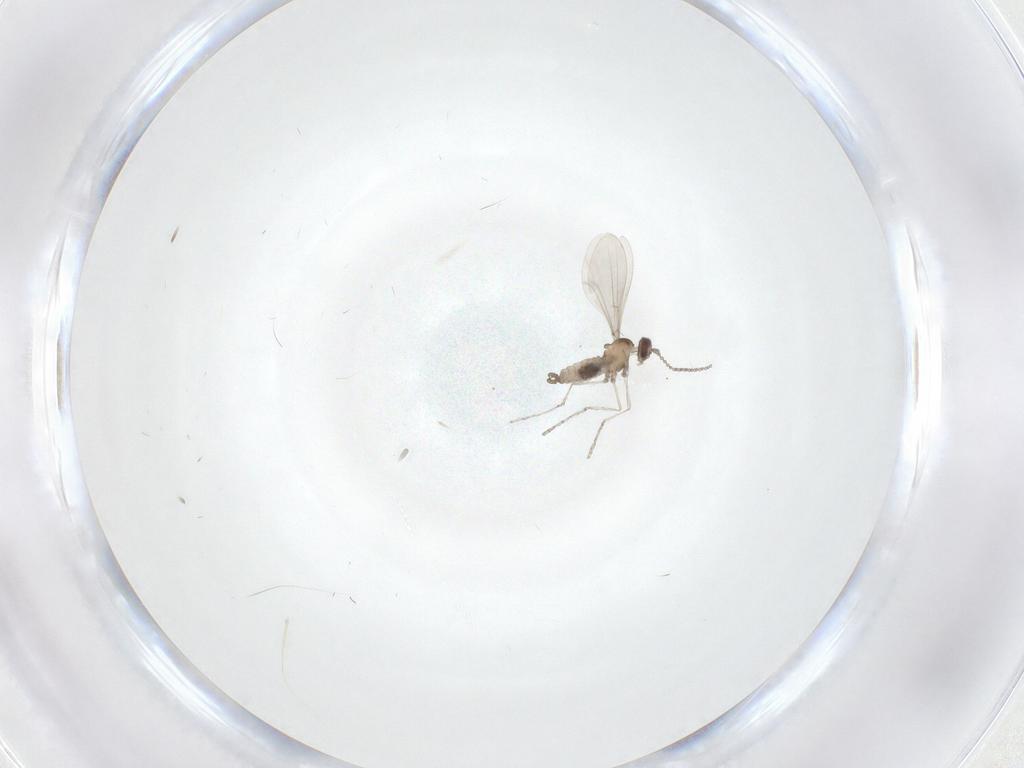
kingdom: Animalia
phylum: Arthropoda
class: Insecta
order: Diptera
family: Cecidomyiidae
